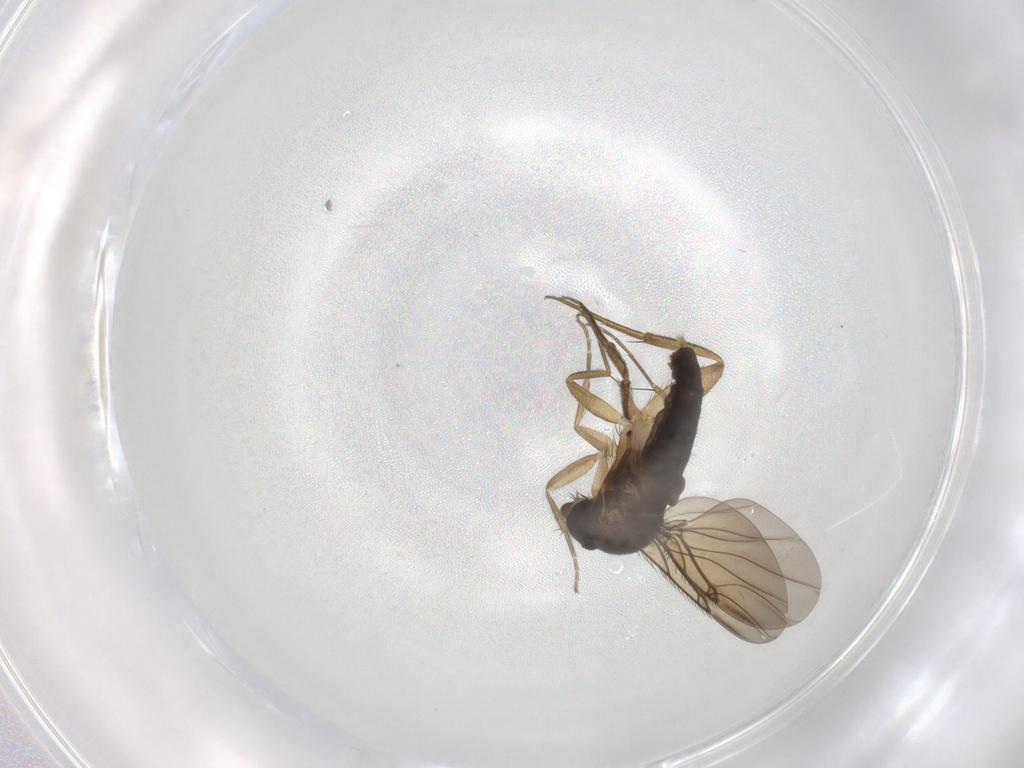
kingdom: Animalia
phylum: Arthropoda
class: Insecta
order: Diptera
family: Phoridae
